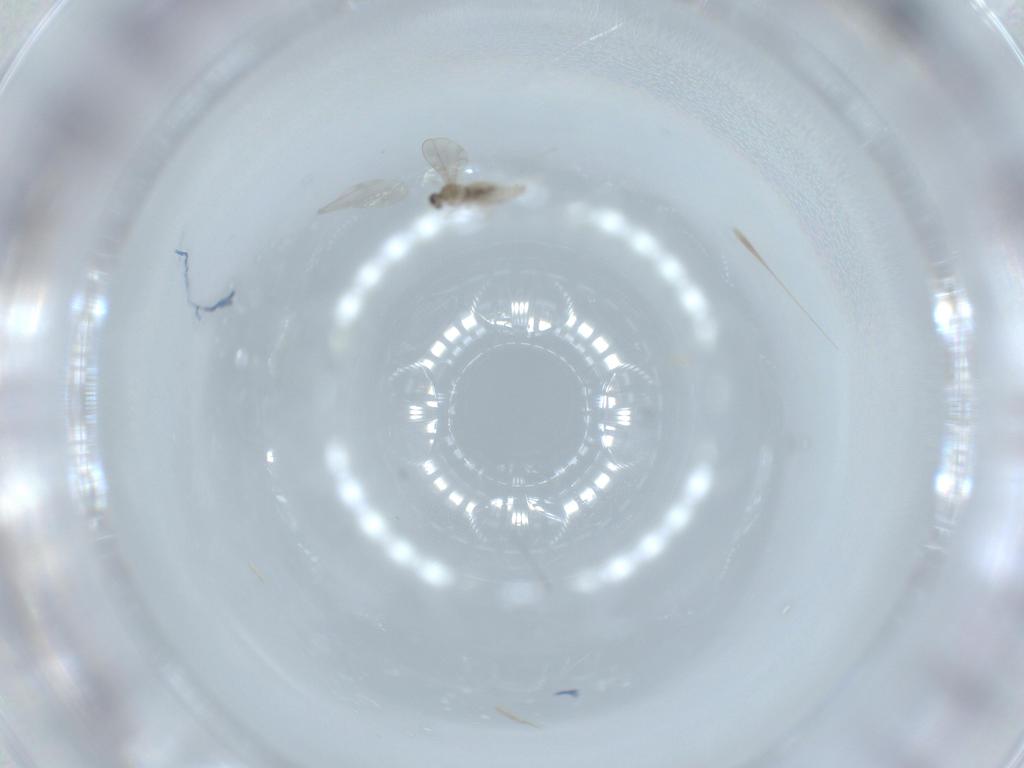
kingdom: Animalia
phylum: Arthropoda
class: Insecta
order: Diptera
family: Cecidomyiidae
